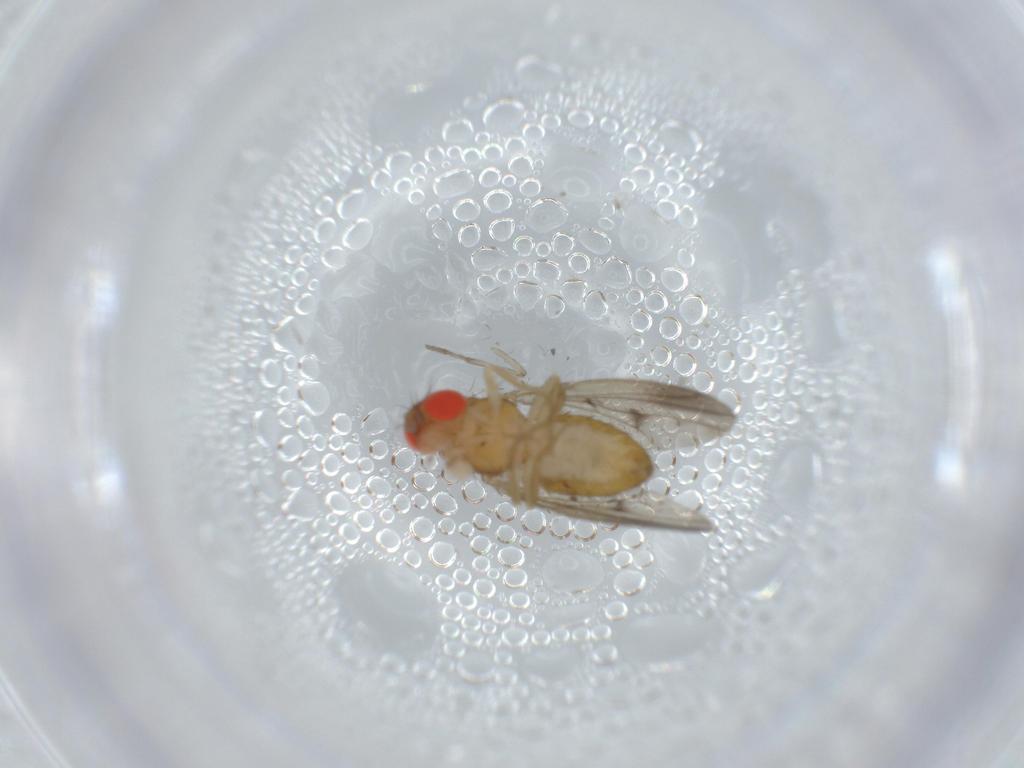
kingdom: Animalia
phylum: Arthropoda
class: Insecta
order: Diptera
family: Drosophilidae
